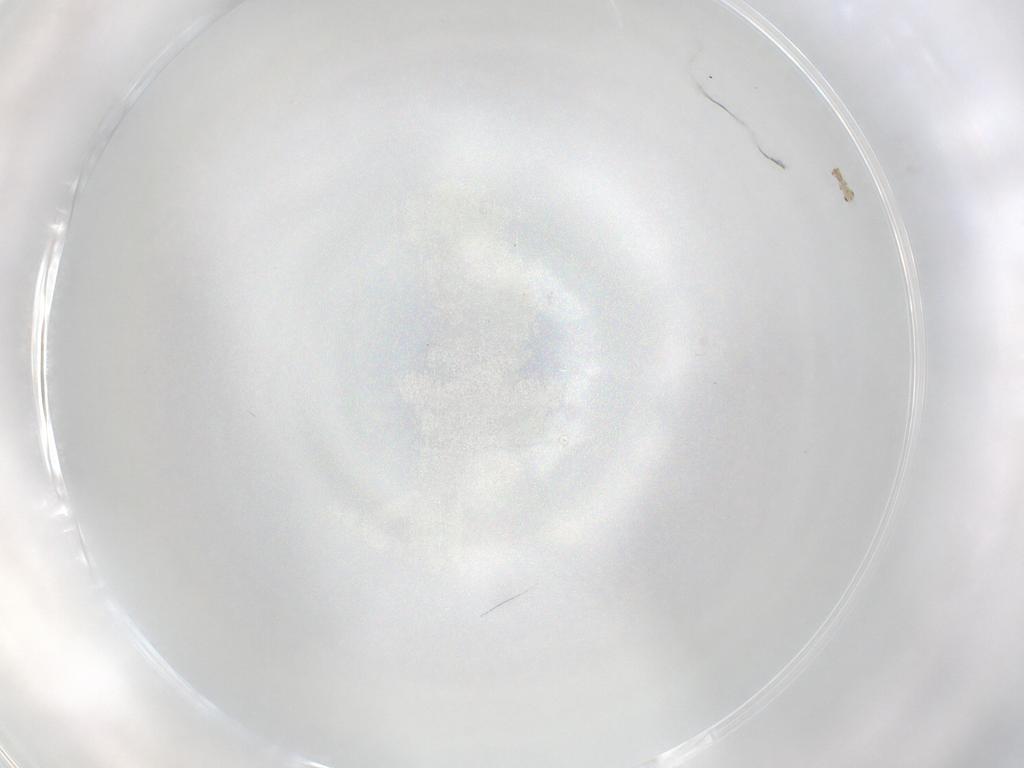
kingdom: Animalia
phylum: Arthropoda
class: Arachnida
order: Sarcoptiformes
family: Humerobatidae
